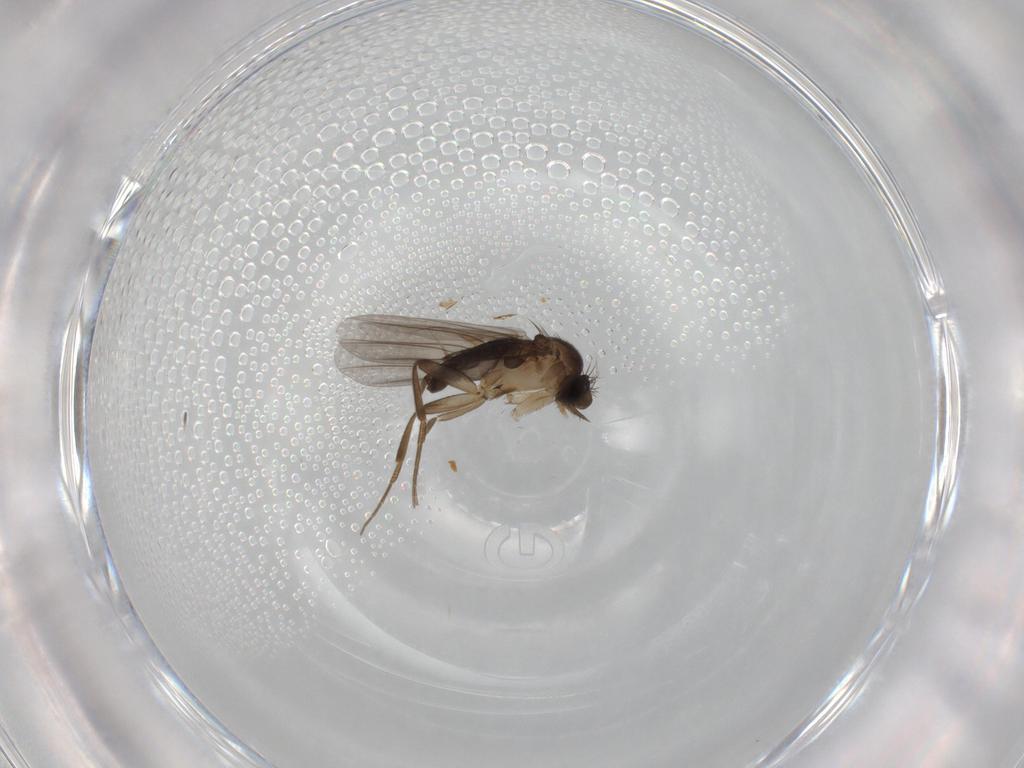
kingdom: Animalia
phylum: Arthropoda
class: Insecta
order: Diptera
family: Phoridae
